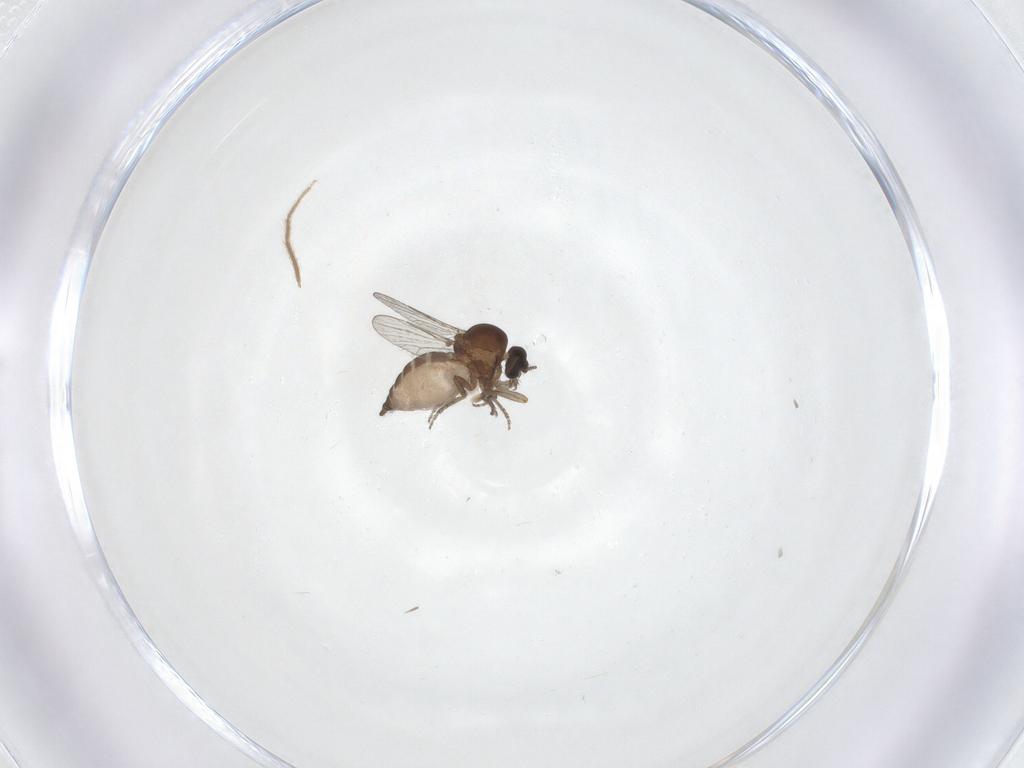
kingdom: Animalia
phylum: Arthropoda
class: Insecta
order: Diptera
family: Chironomidae
